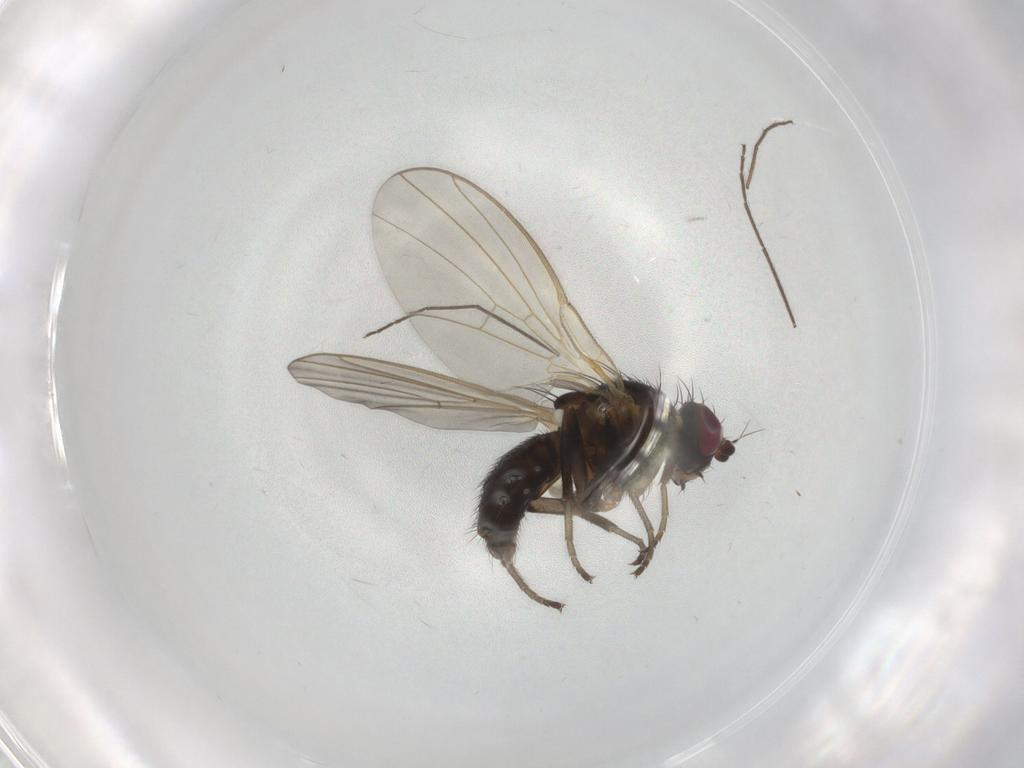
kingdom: Animalia
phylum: Arthropoda
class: Insecta
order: Diptera
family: Agromyzidae
